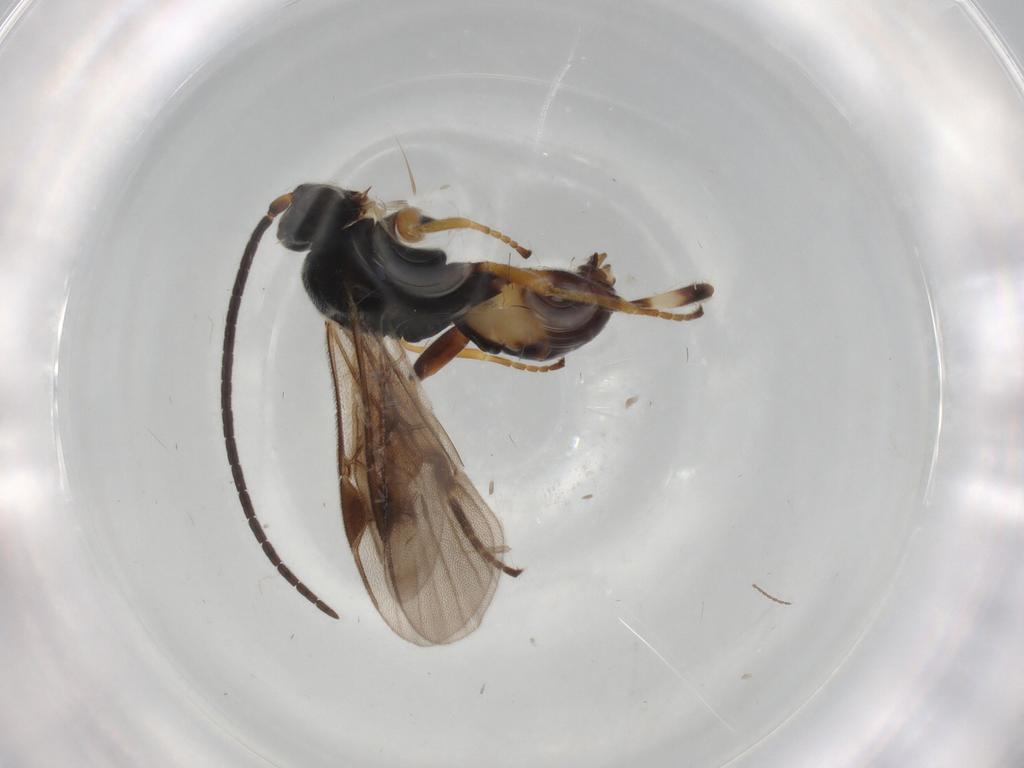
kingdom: Animalia
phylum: Arthropoda
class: Insecta
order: Hymenoptera
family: Braconidae
